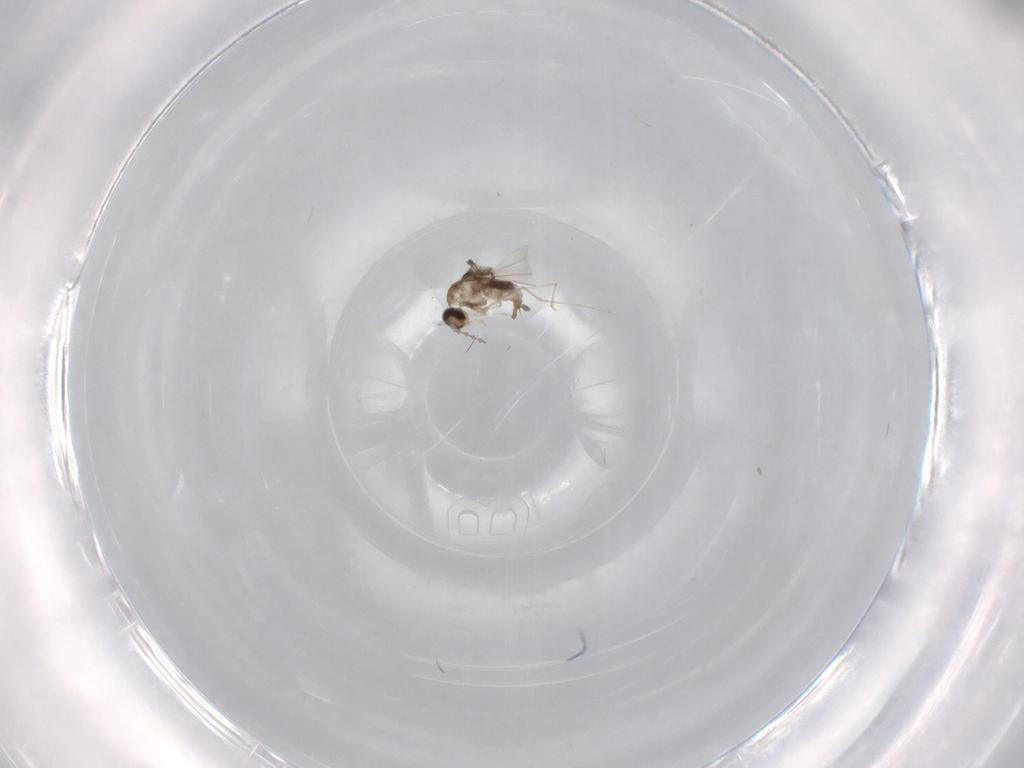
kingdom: Animalia
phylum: Arthropoda
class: Insecta
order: Diptera
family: Cecidomyiidae
